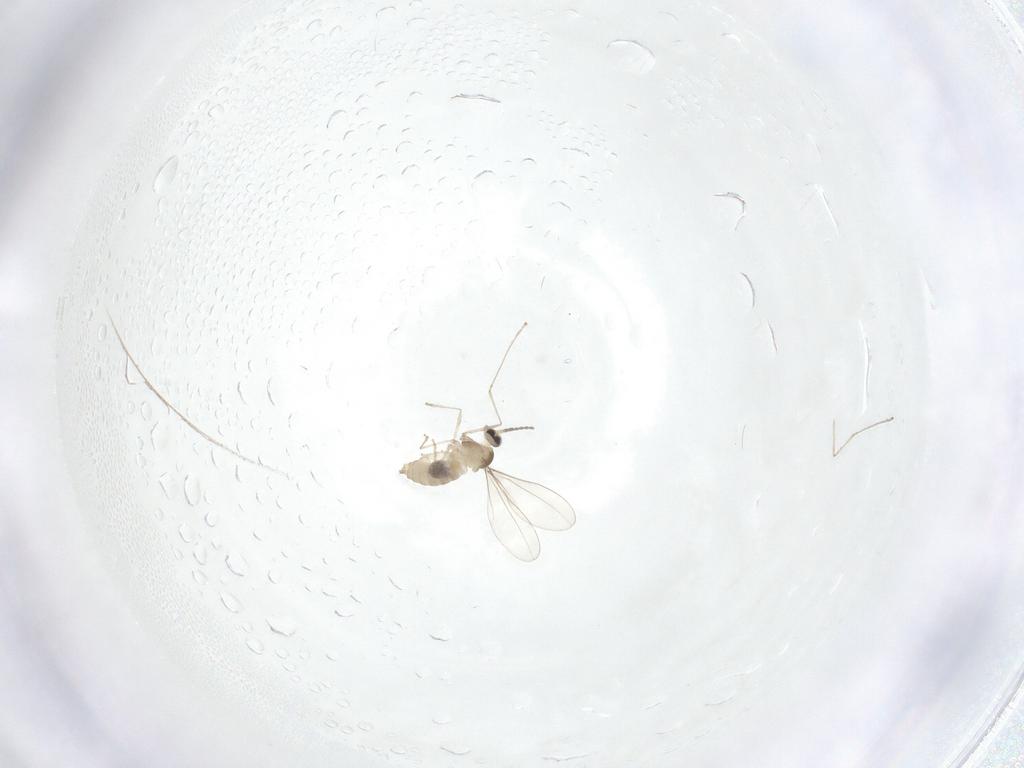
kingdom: Animalia
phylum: Arthropoda
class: Insecta
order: Diptera
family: Cecidomyiidae
